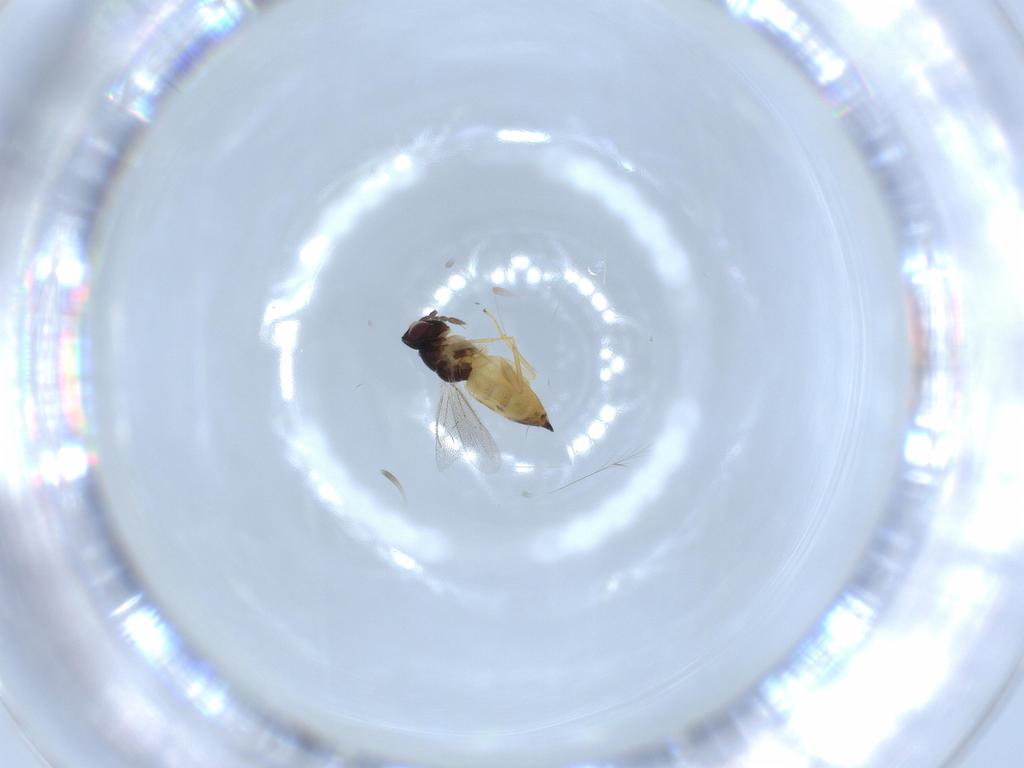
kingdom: Animalia
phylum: Arthropoda
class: Insecta
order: Hymenoptera
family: Eulophidae
